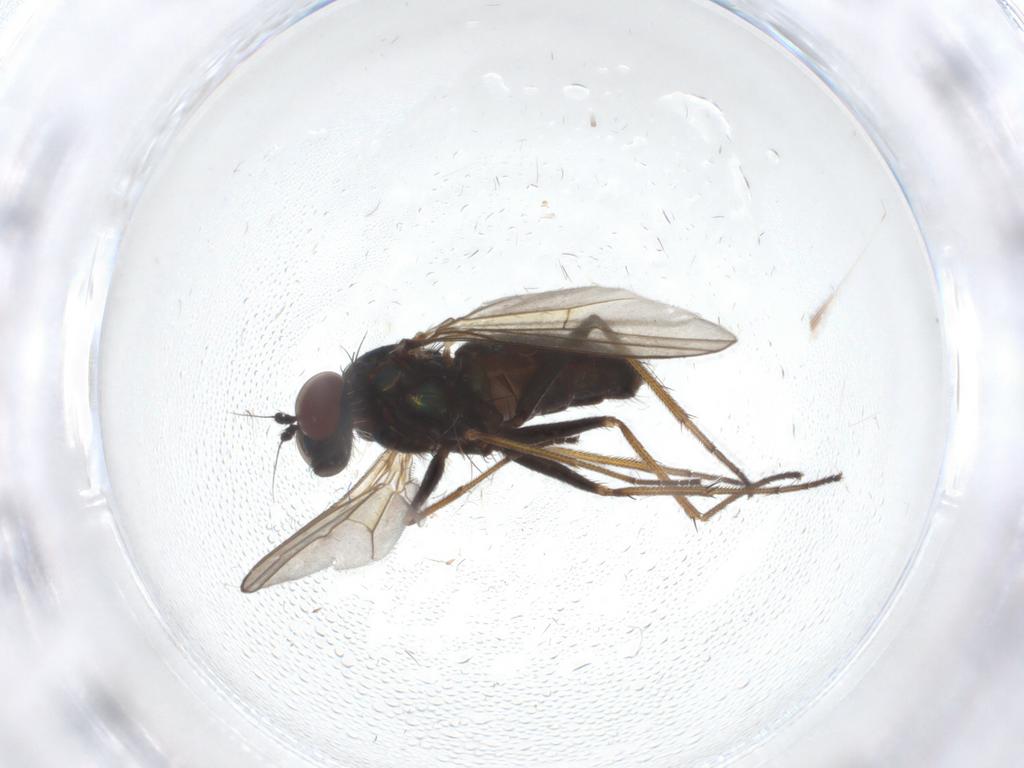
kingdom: Animalia
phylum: Arthropoda
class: Insecta
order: Diptera
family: Dolichopodidae
